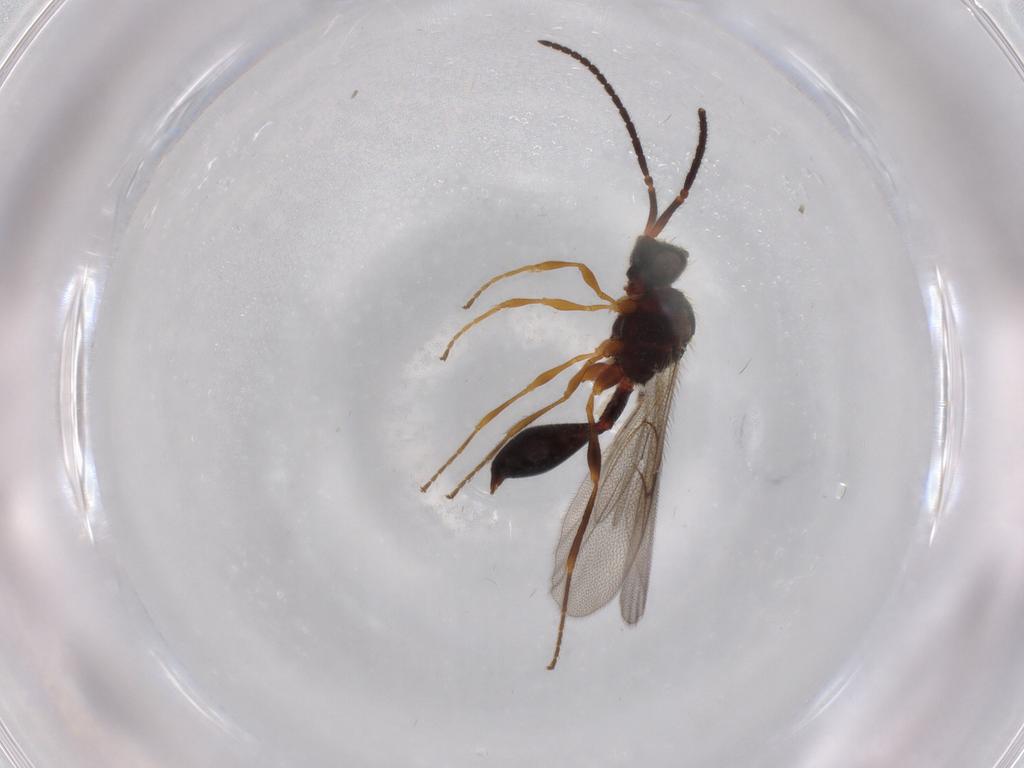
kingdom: Animalia
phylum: Arthropoda
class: Insecta
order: Hymenoptera
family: Diapriidae
